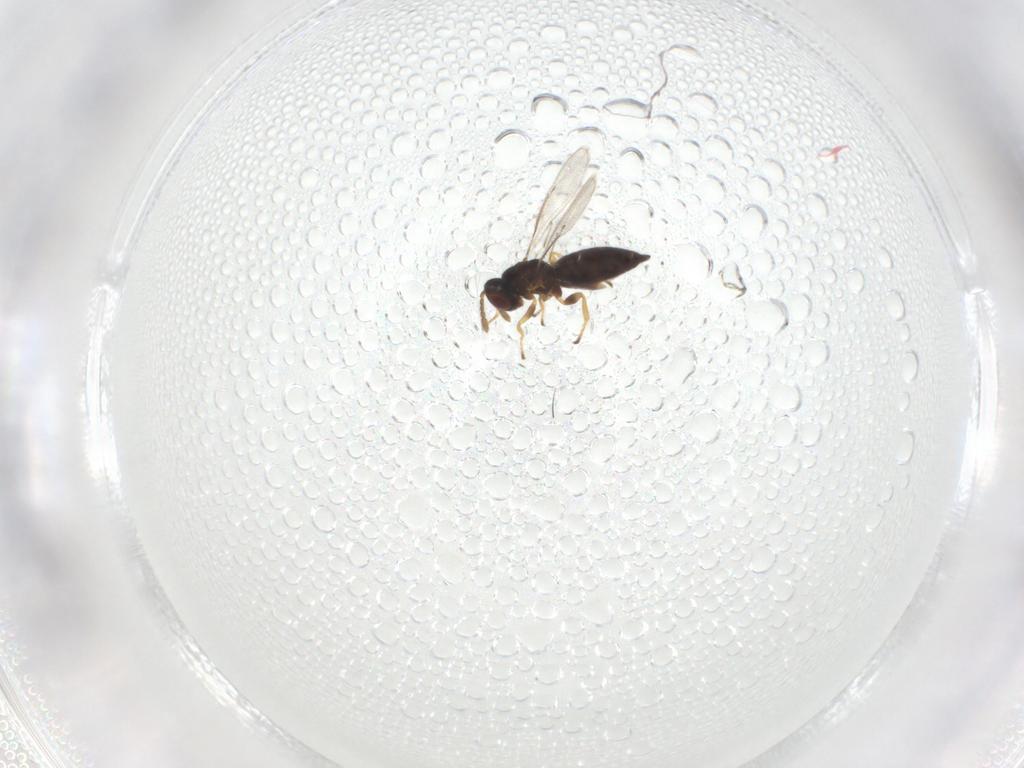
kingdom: Animalia
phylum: Arthropoda
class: Insecta
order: Hymenoptera
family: Eulophidae
